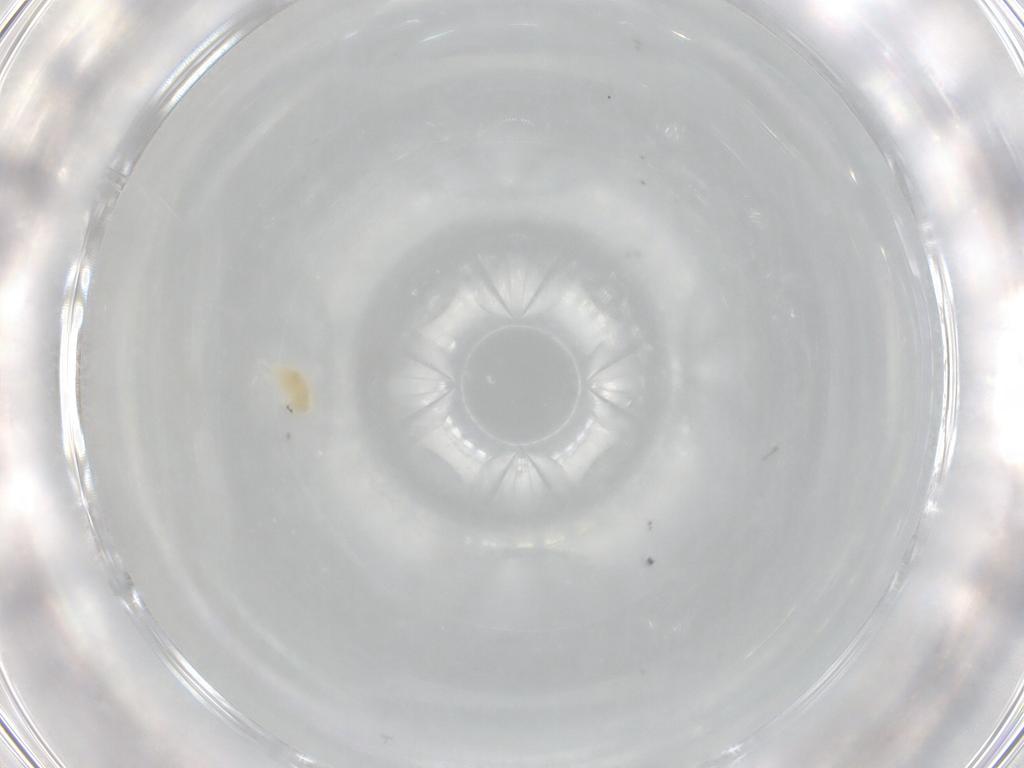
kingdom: Animalia
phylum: Arthropoda
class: Arachnida
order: Trombidiformes
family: Eupodidae
